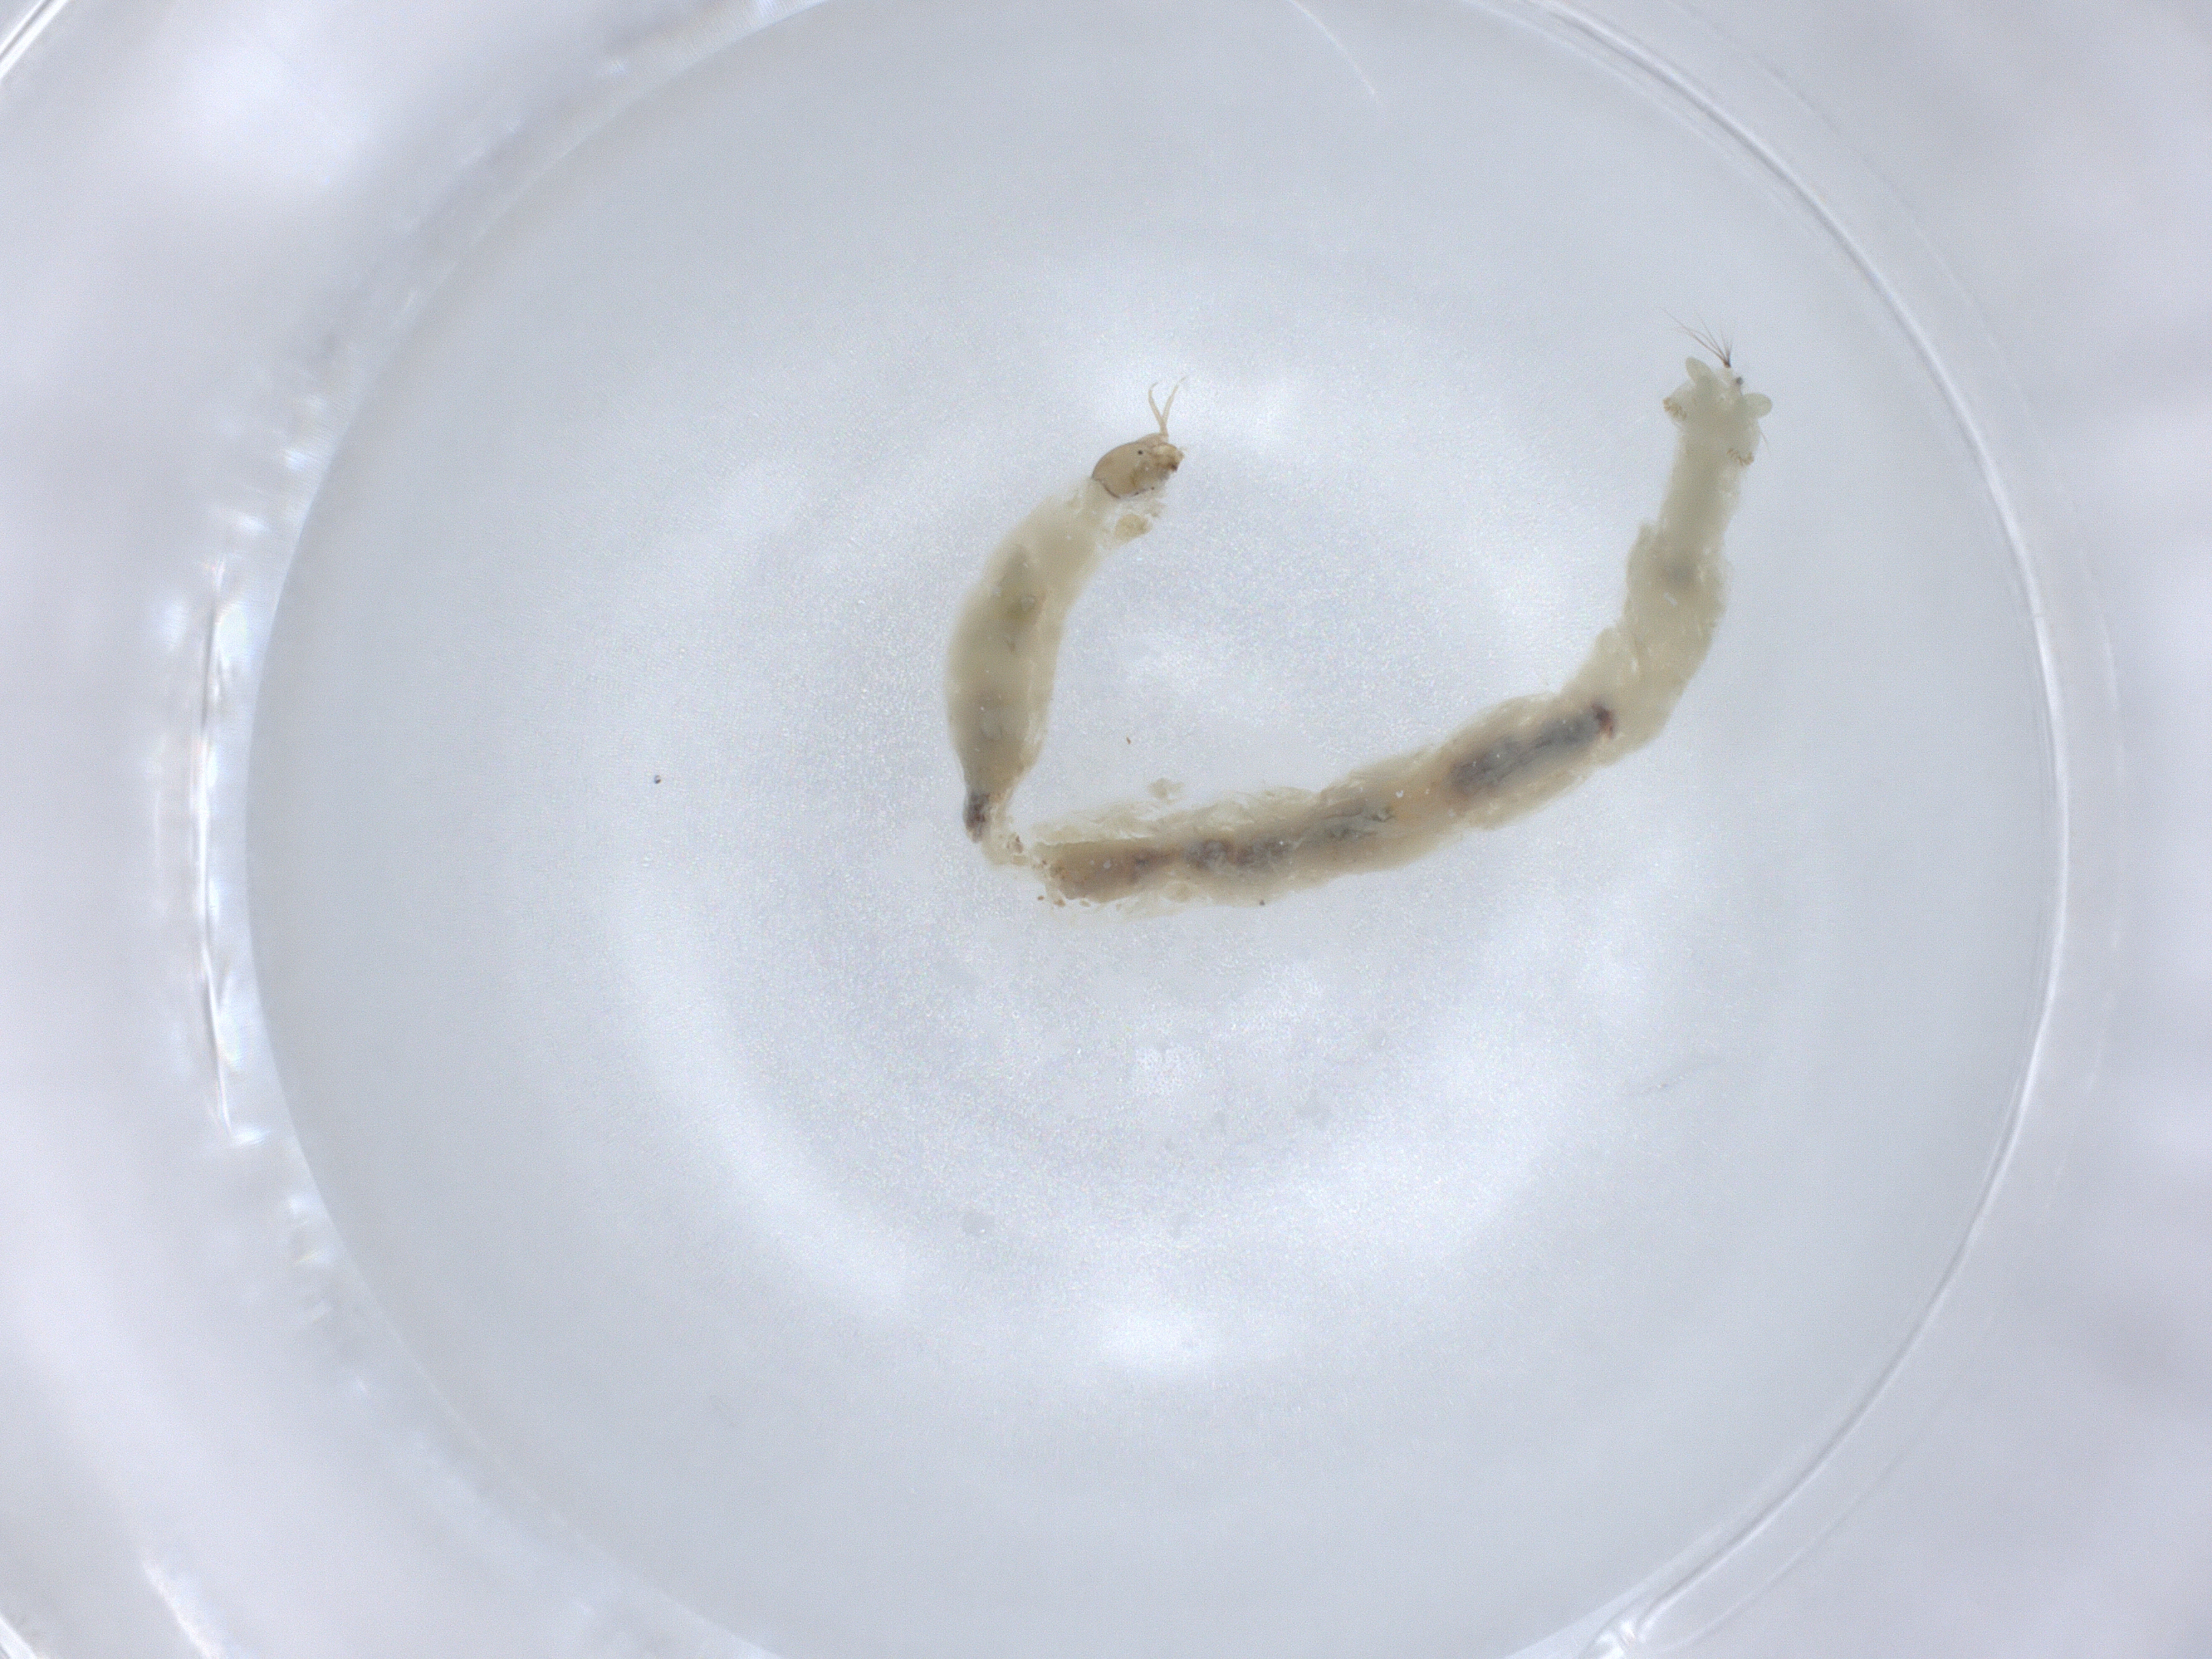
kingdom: Animalia
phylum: Arthropoda
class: Insecta
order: Diptera
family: Chironomidae
